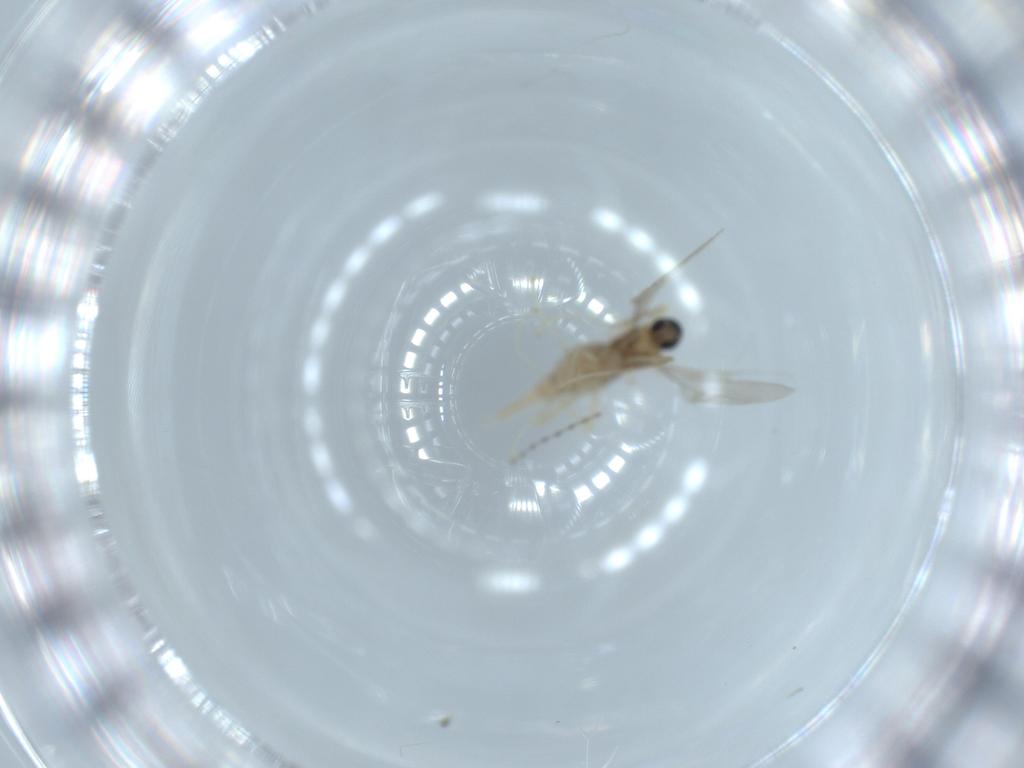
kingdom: Animalia
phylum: Arthropoda
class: Insecta
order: Diptera
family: Cecidomyiidae
